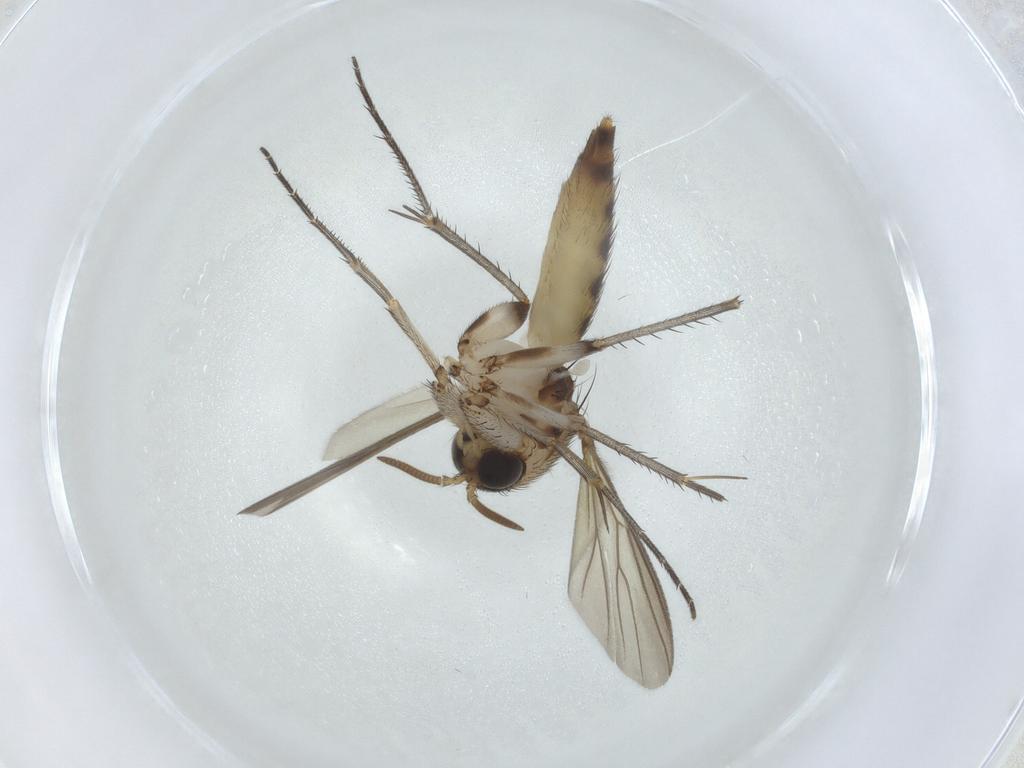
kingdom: Animalia
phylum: Arthropoda
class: Insecta
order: Diptera
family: Mycetophilidae
